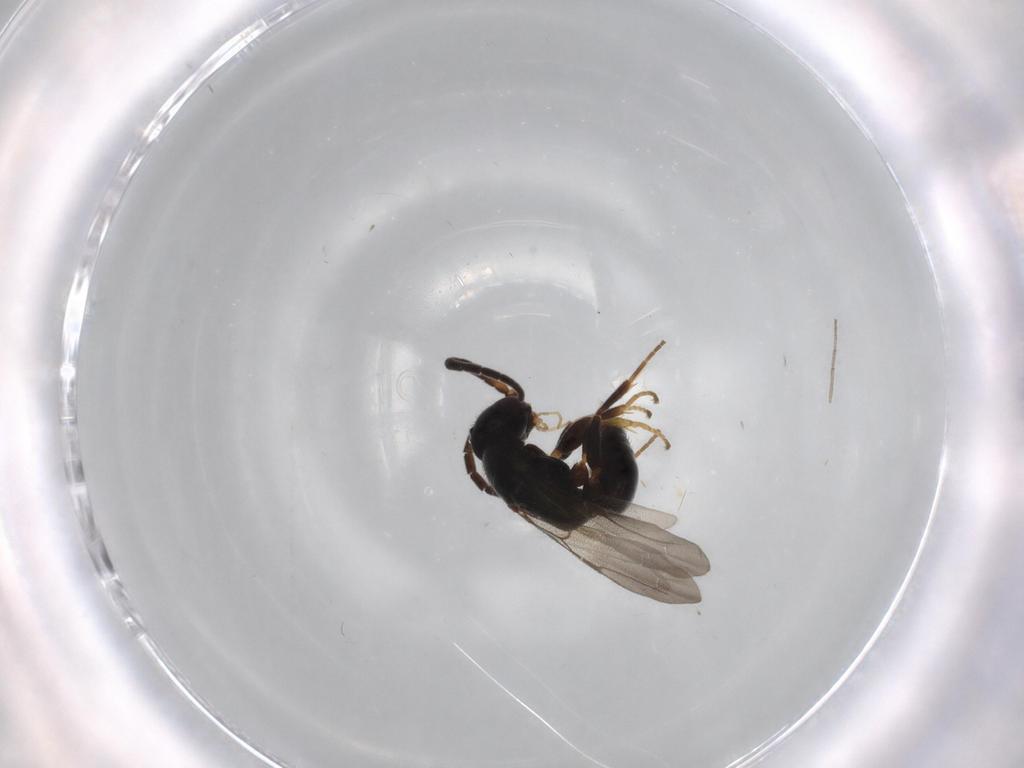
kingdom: Animalia
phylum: Arthropoda
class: Insecta
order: Hymenoptera
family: Bethylidae
